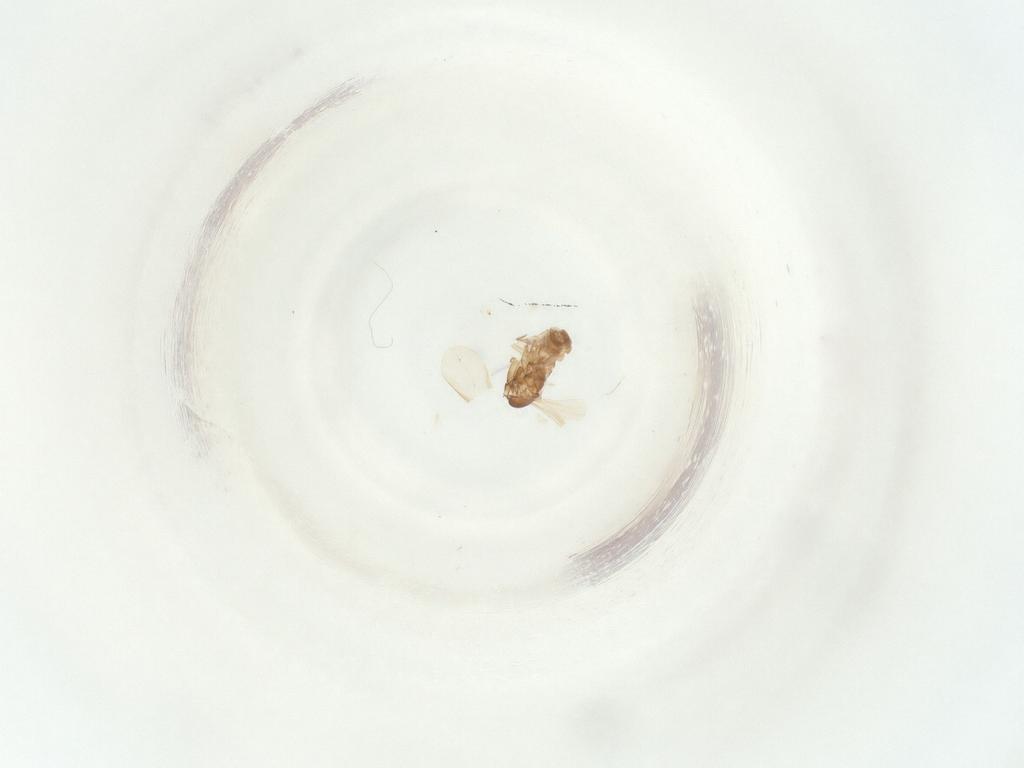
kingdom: Animalia
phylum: Arthropoda
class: Insecta
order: Diptera
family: Sciaridae
